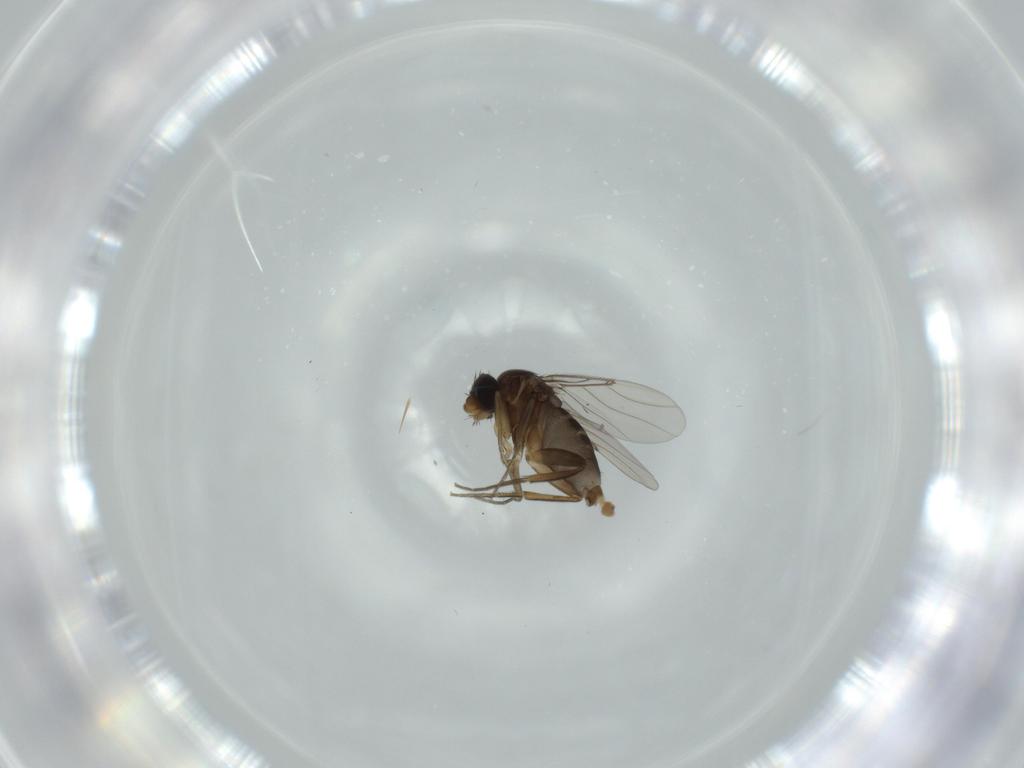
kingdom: Animalia
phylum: Arthropoda
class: Insecta
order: Diptera
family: Phoridae
